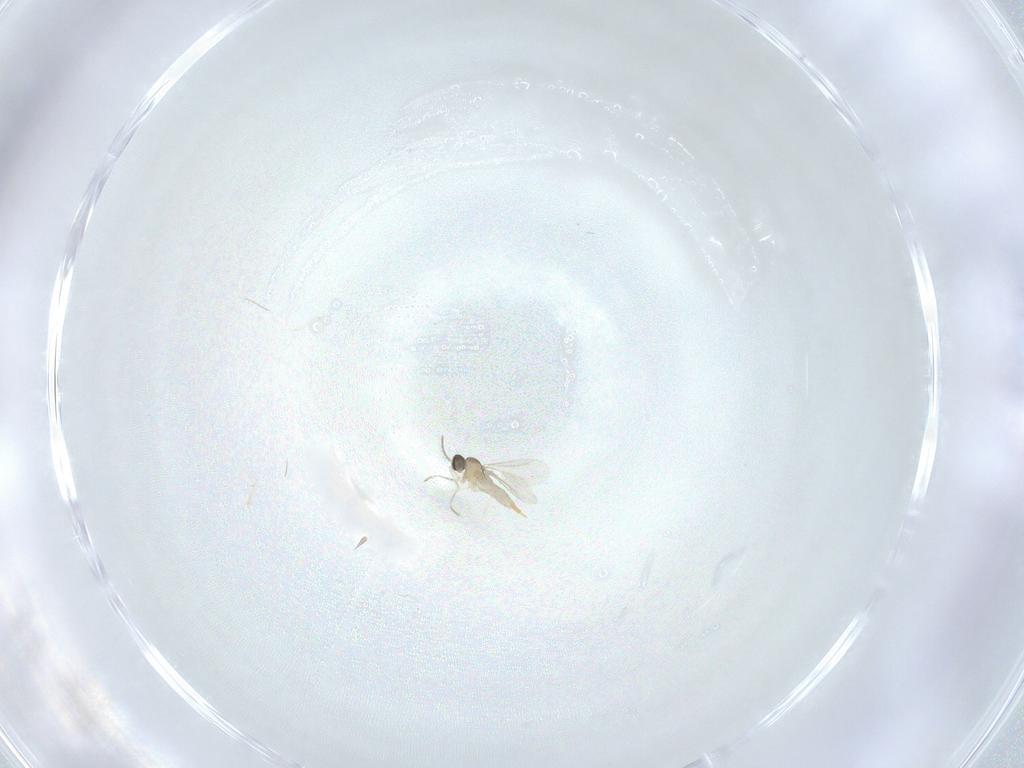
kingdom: Animalia
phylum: Arthropoda
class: Insecta
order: Diptera
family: Cecidomyiidae
